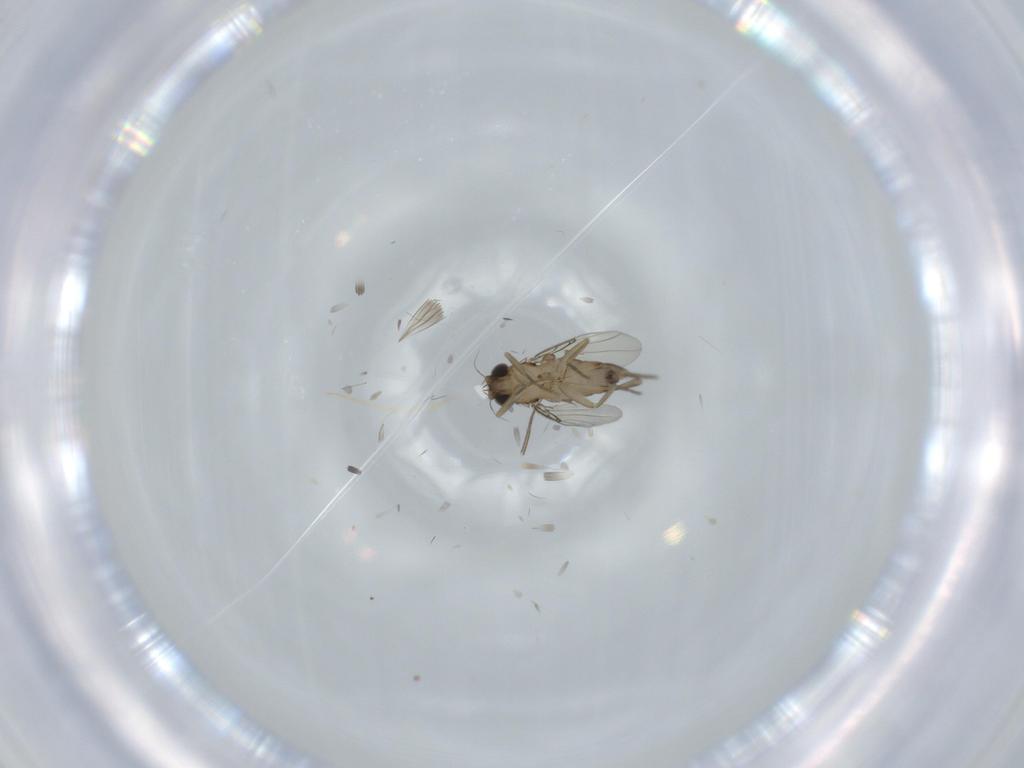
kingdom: Animalia
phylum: Arthropoda
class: Insecta
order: Diptera
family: Phoridae
